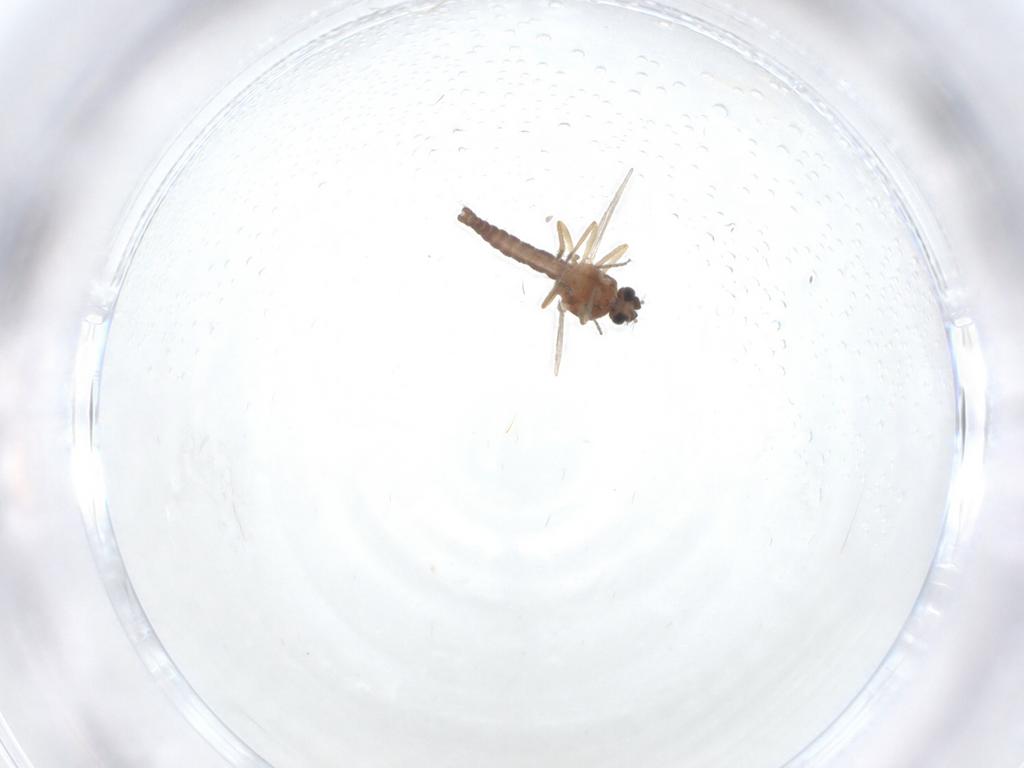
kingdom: Animalia
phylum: Arthropoda
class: Insecta
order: Diptera
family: Ceratopogonidae
